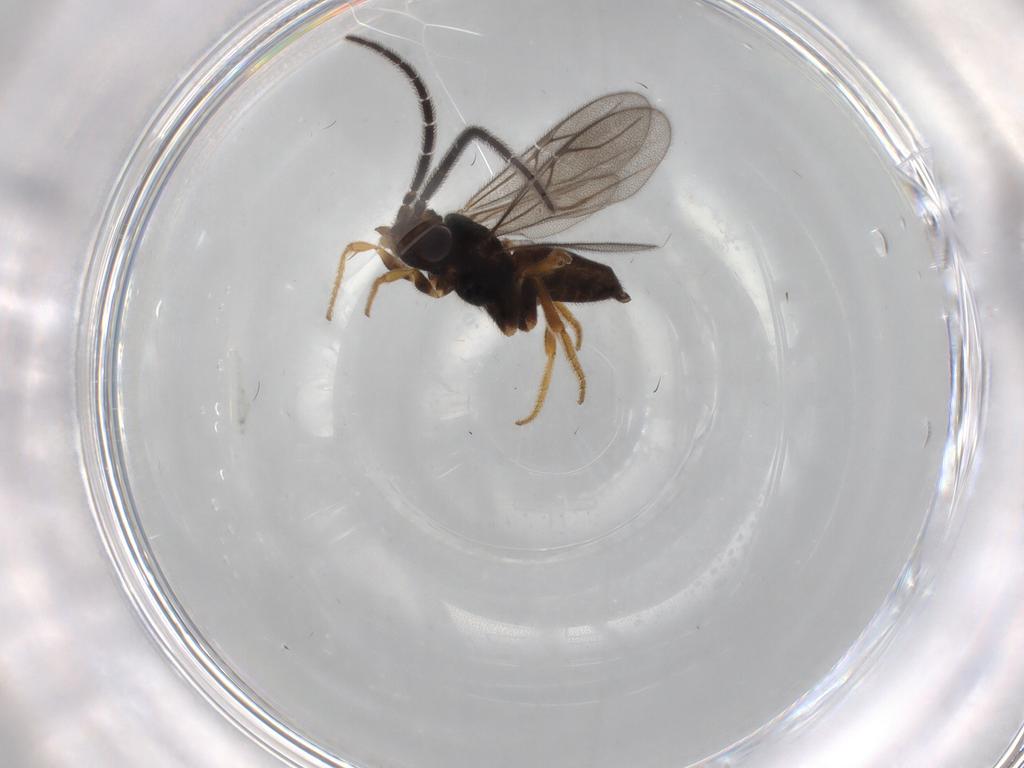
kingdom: Animalia
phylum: Arthropoda
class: Insecta
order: Hymenoptera
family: Dryinidae
